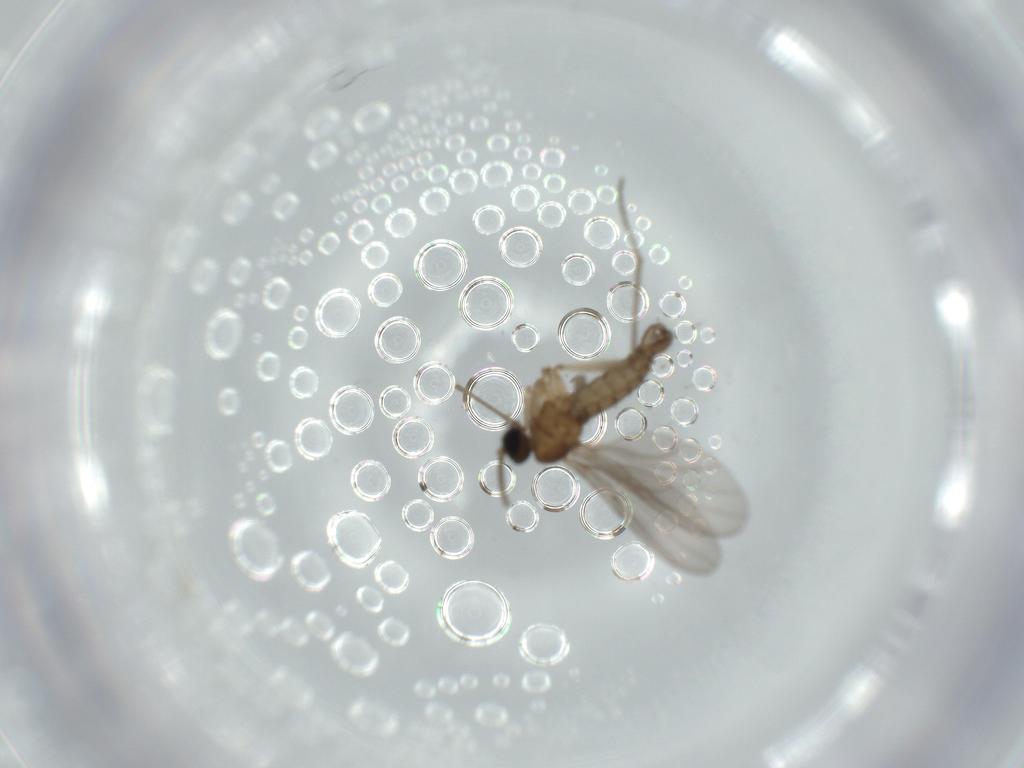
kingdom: Animalia
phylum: Arthropoda
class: Insecta
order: Diptera
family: Sciaridae
